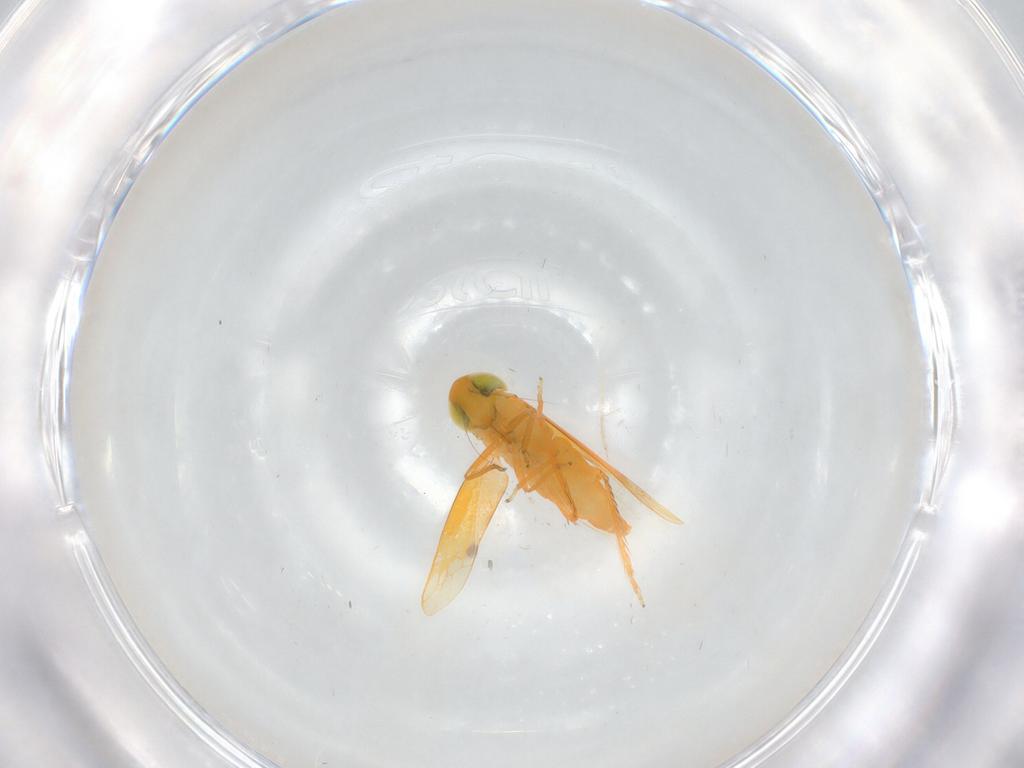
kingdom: Animalia
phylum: Arthropoda
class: Insecta
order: Hemiptera
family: Cicadellidae
